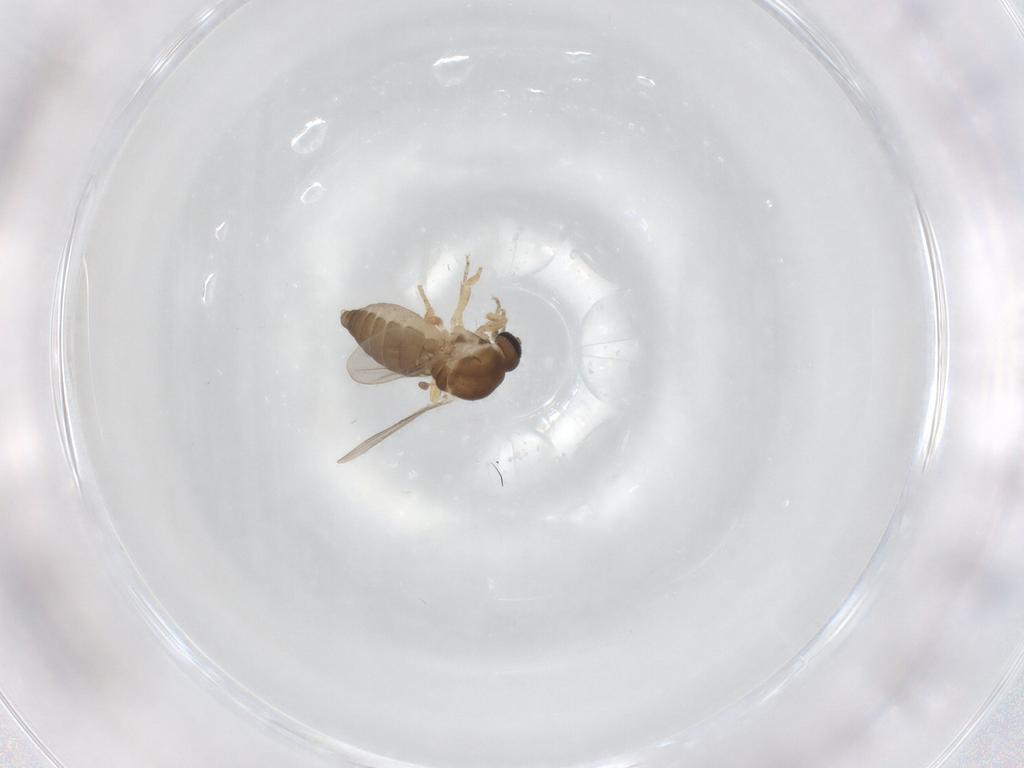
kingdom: Animalia
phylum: Arthropoda
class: Insecta
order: Diptera
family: Ceratopogonidae
